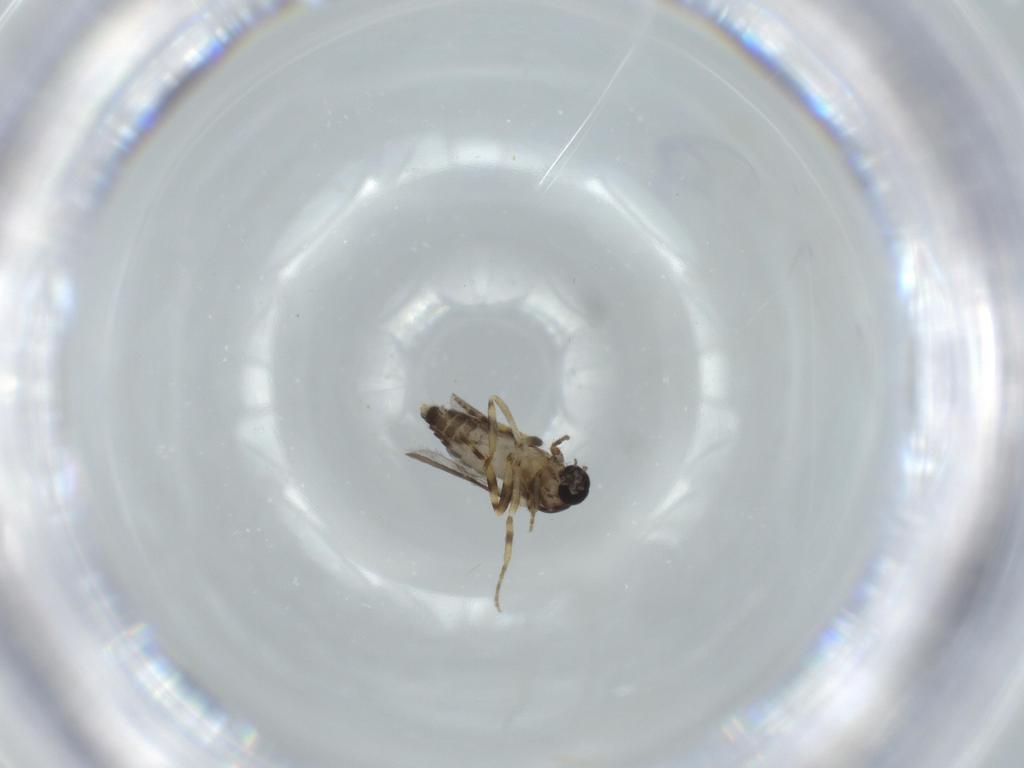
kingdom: Animalia
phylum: Arthropoda
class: Insecta
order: Diptera
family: Ceratopogonidae
